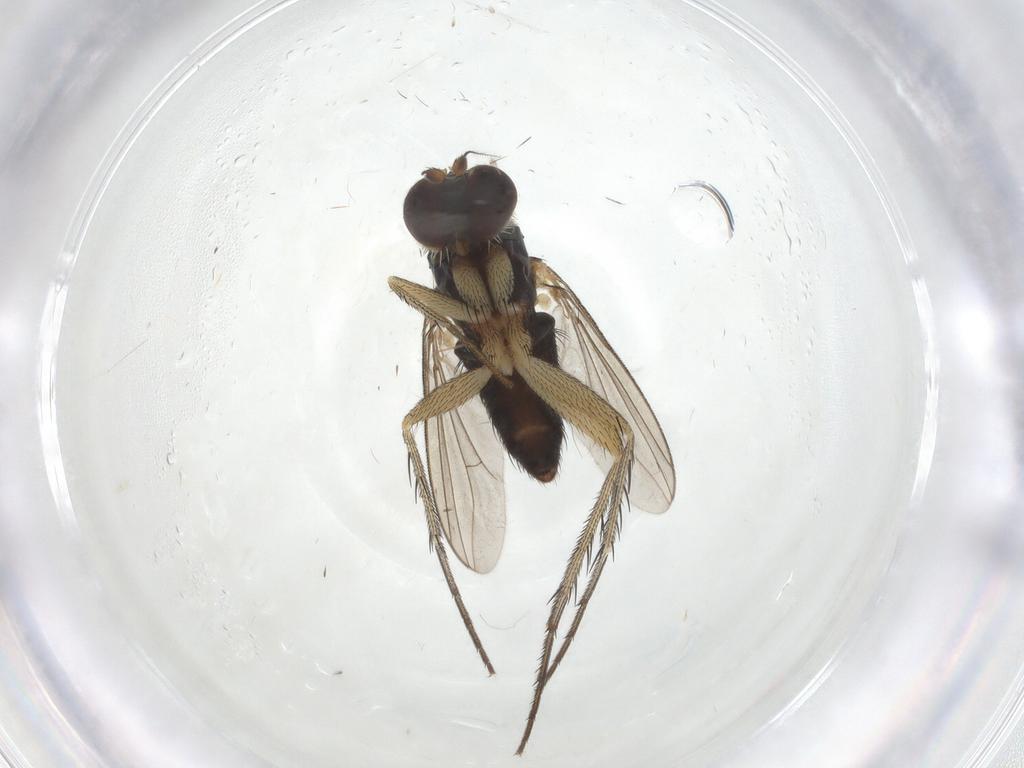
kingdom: Animalia
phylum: Arthropoda
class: Insecta
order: Diptera
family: Dolichopodidae
